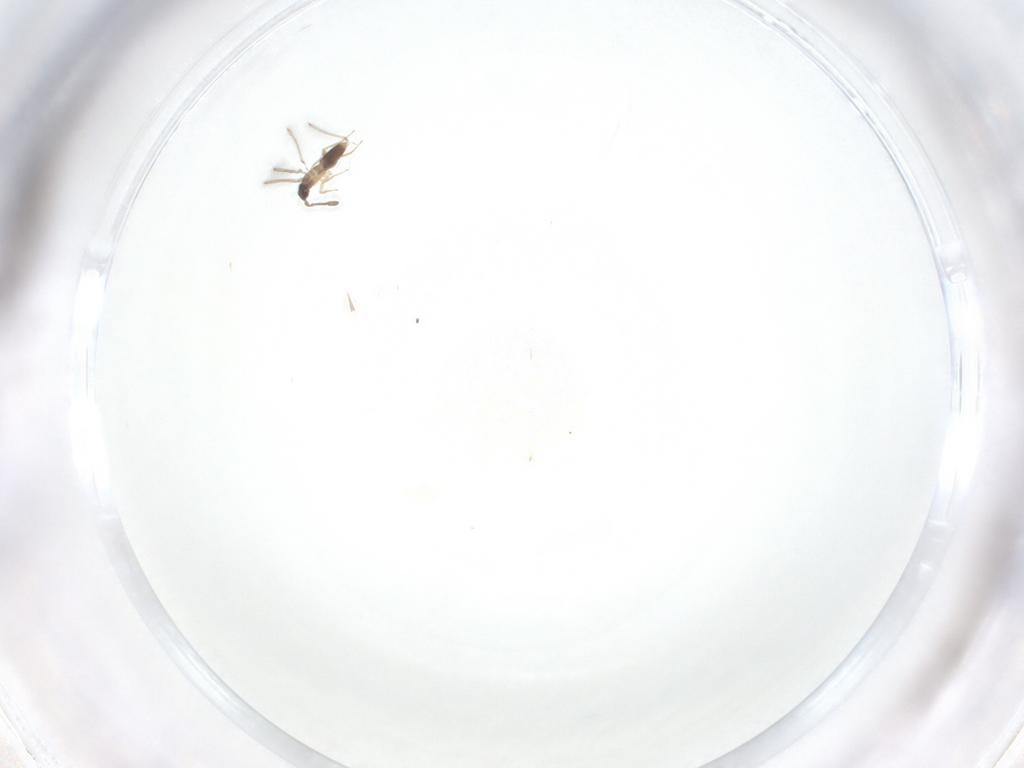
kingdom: Animalia
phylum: Arthropoda
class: Insecta
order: Hymenoptera
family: Mymaridae
